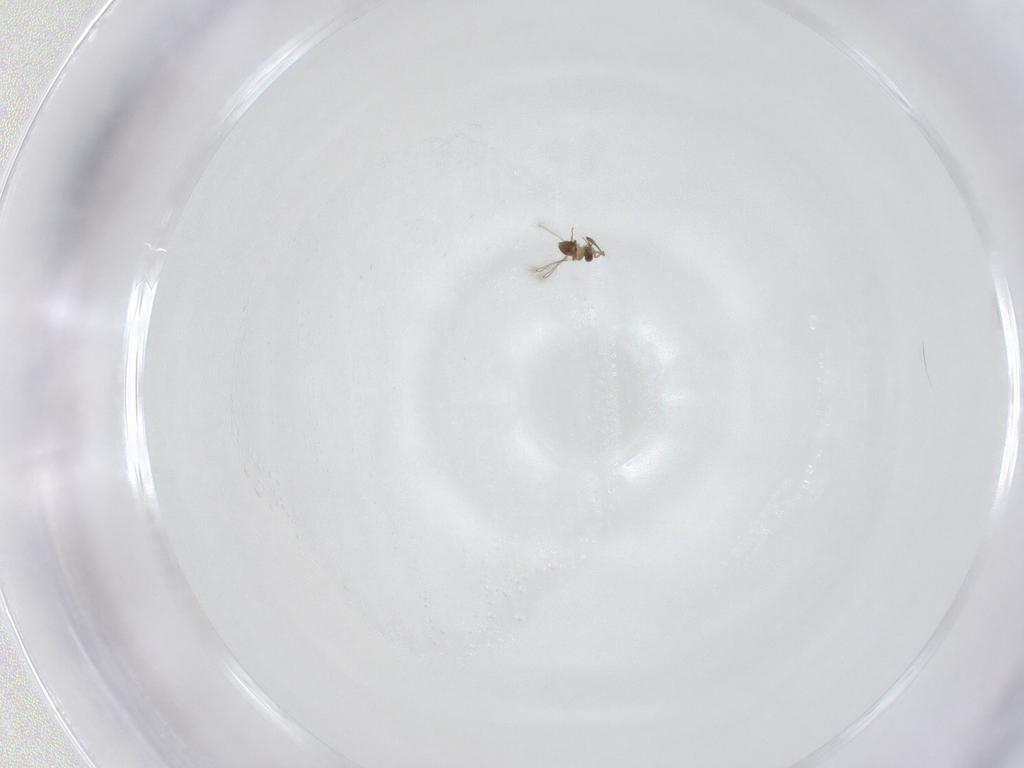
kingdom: Animalia
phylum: Arthropoda
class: Insecta
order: Hymenoptera
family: Mymaridae
